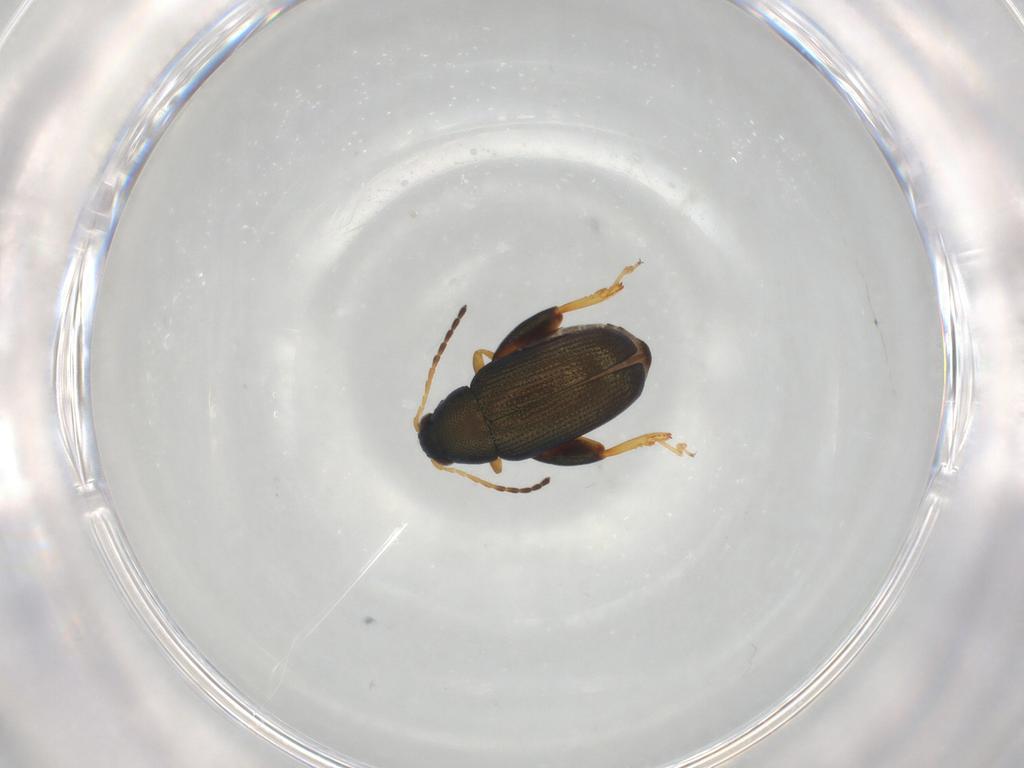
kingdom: Animalia
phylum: Arthropoda
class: Insecta
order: Coleoptera
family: Chrysomelidae
